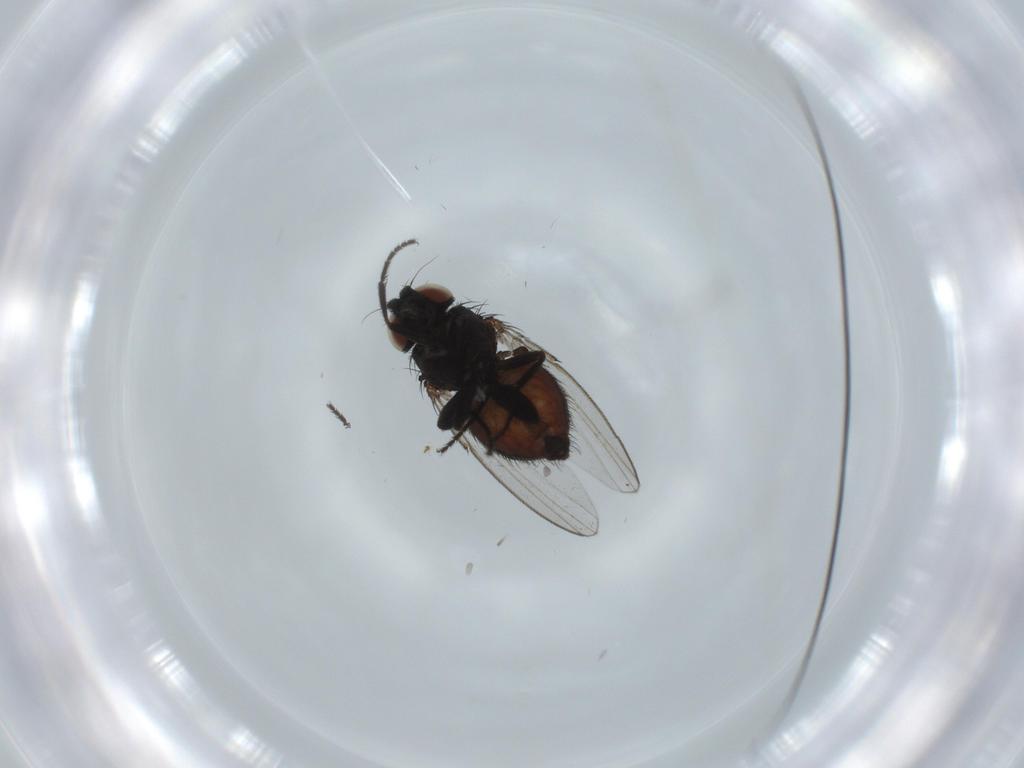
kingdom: Animalia
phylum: Arthropoda
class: Insecta
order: Diptera
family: Milichiidae
